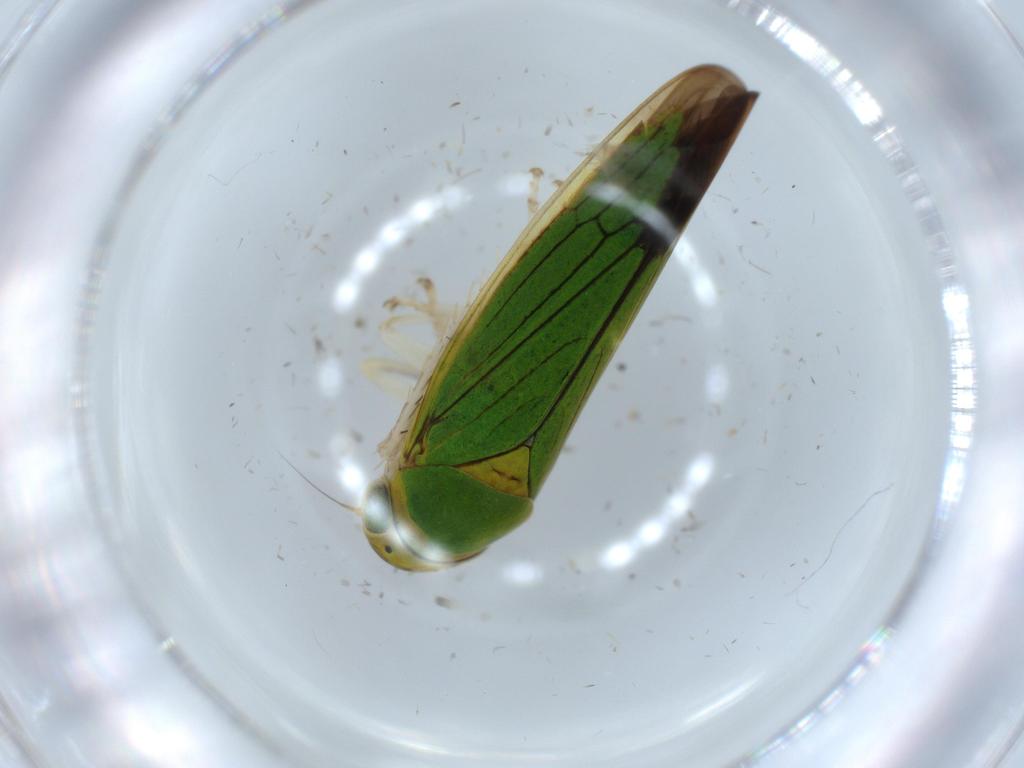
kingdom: Animalia
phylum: Arthropoda
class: Insecta
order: Hemiptera
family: Cicadellidae
